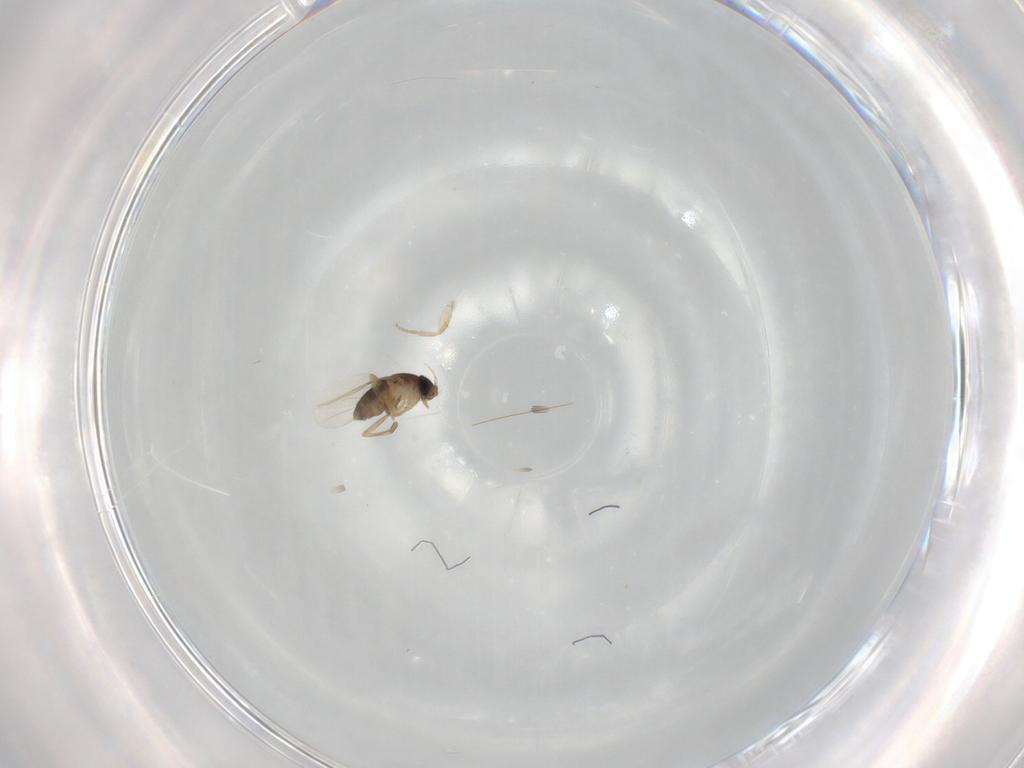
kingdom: Animalia
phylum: Arthropoda
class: Insecta
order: Diptera
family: Phoridae
